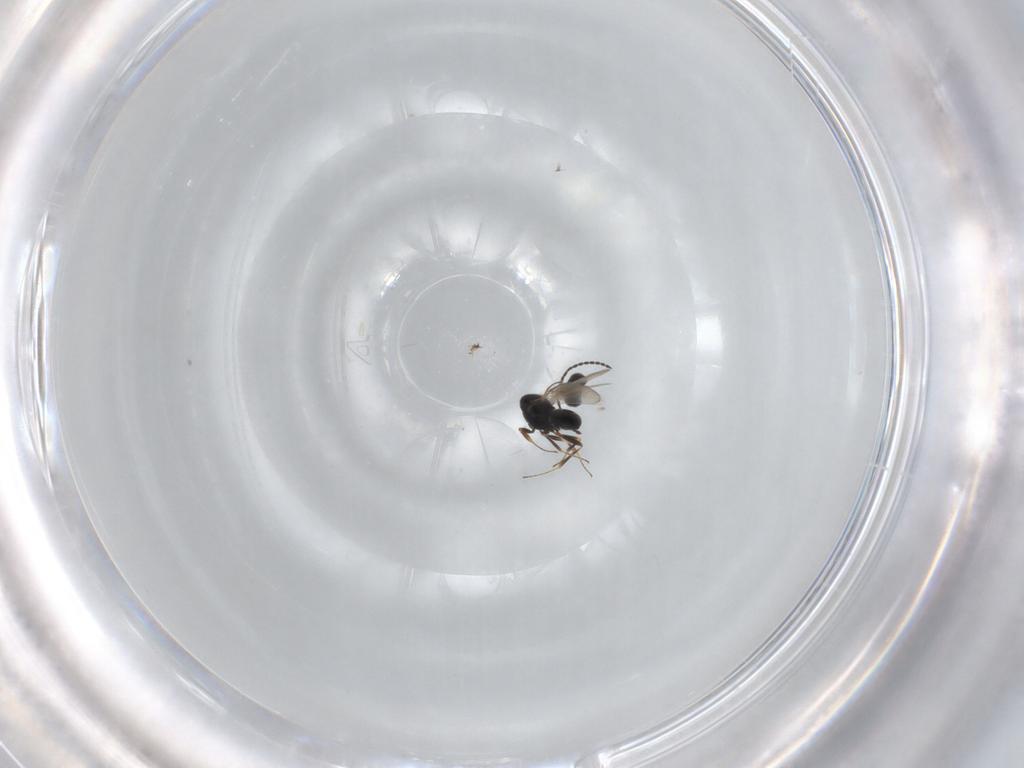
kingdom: Animalia
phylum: Arthropoda
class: Insecta
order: Hymenoptera
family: Scelionidae
